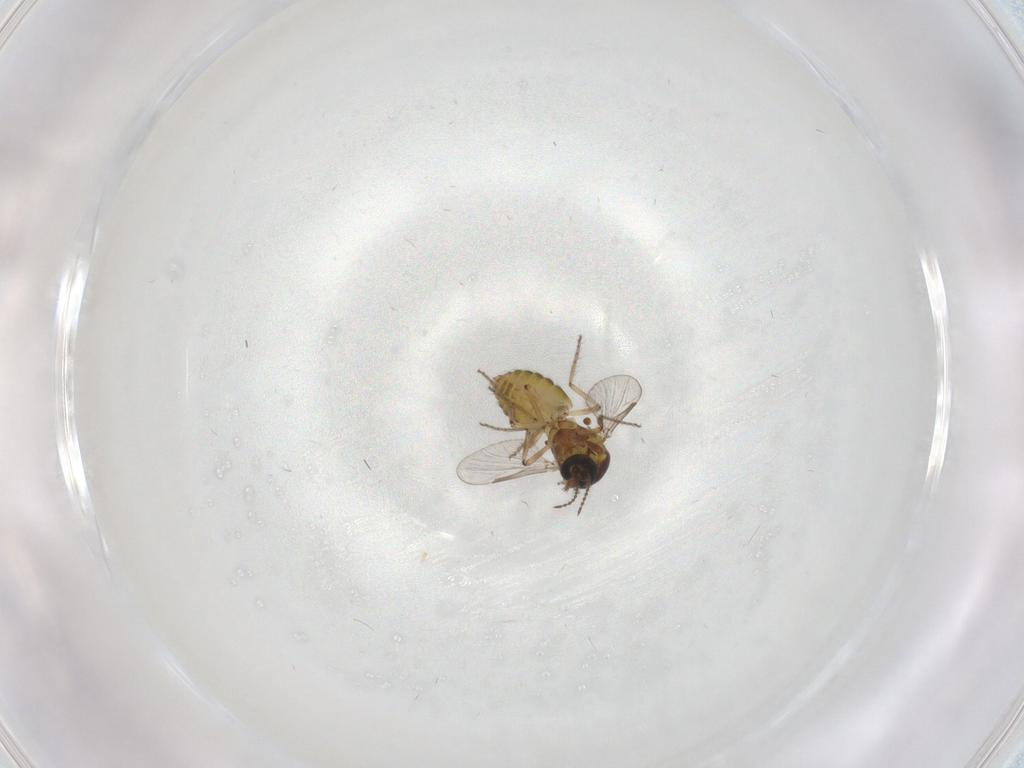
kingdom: Animalia
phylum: Arthropoda
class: Insecta
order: Diptera
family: Ceratopogonidae
